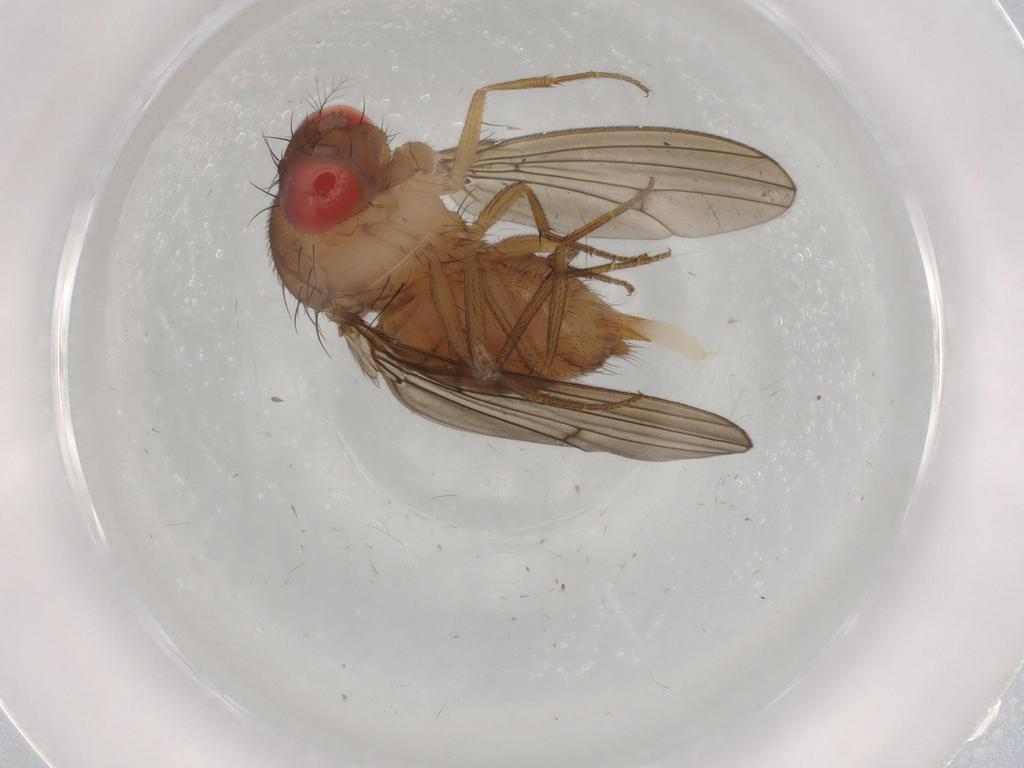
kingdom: Animalia
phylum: Arthropoda
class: Insecta
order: Diptera
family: Drosophilidae
